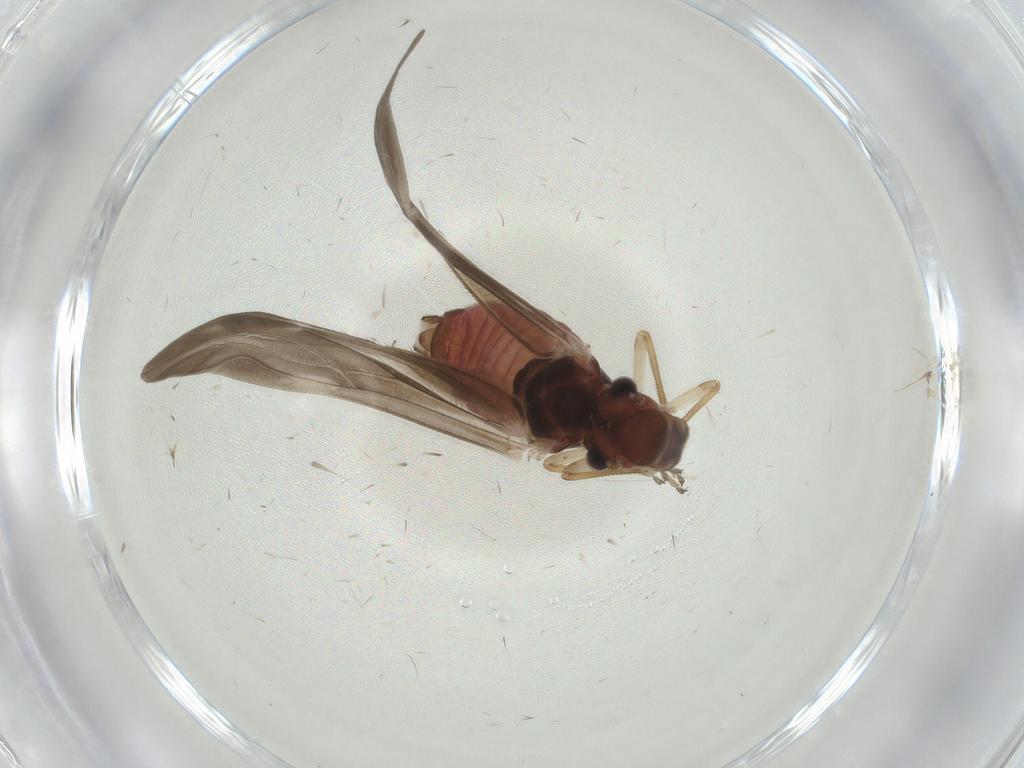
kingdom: Animalia
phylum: Arthropoda
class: Insecta
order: Psocodea
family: Caeciliusidae
